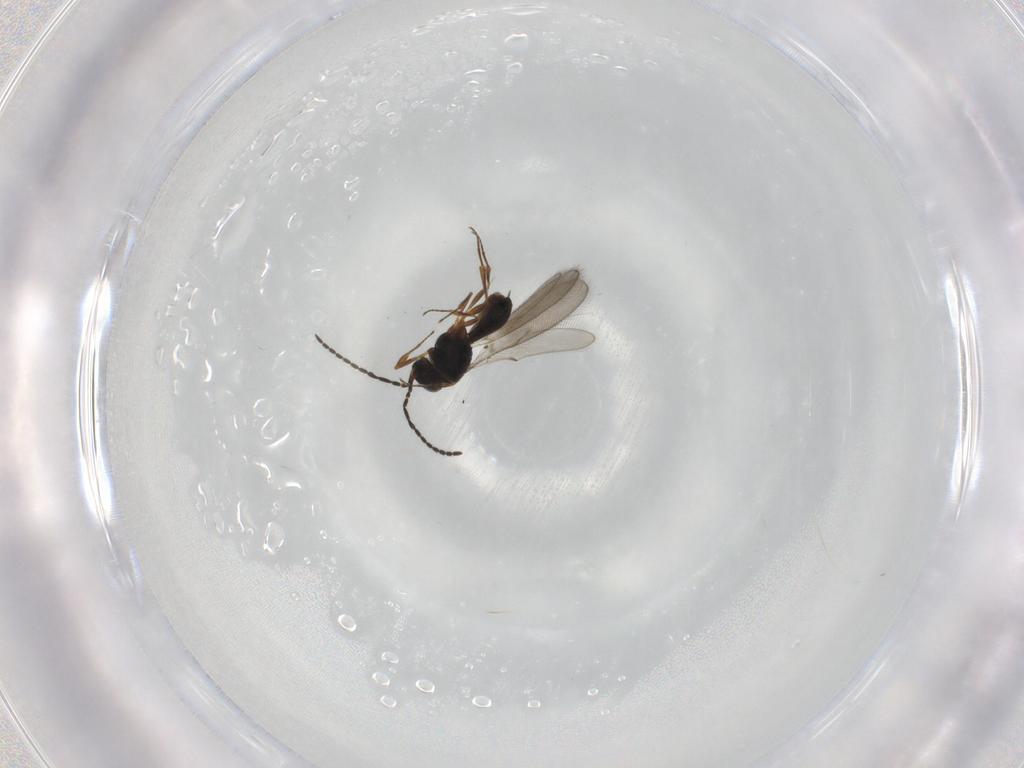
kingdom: Animalia
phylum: Arthropoda
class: Insecta
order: Hymenoptera
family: Scelionidae
